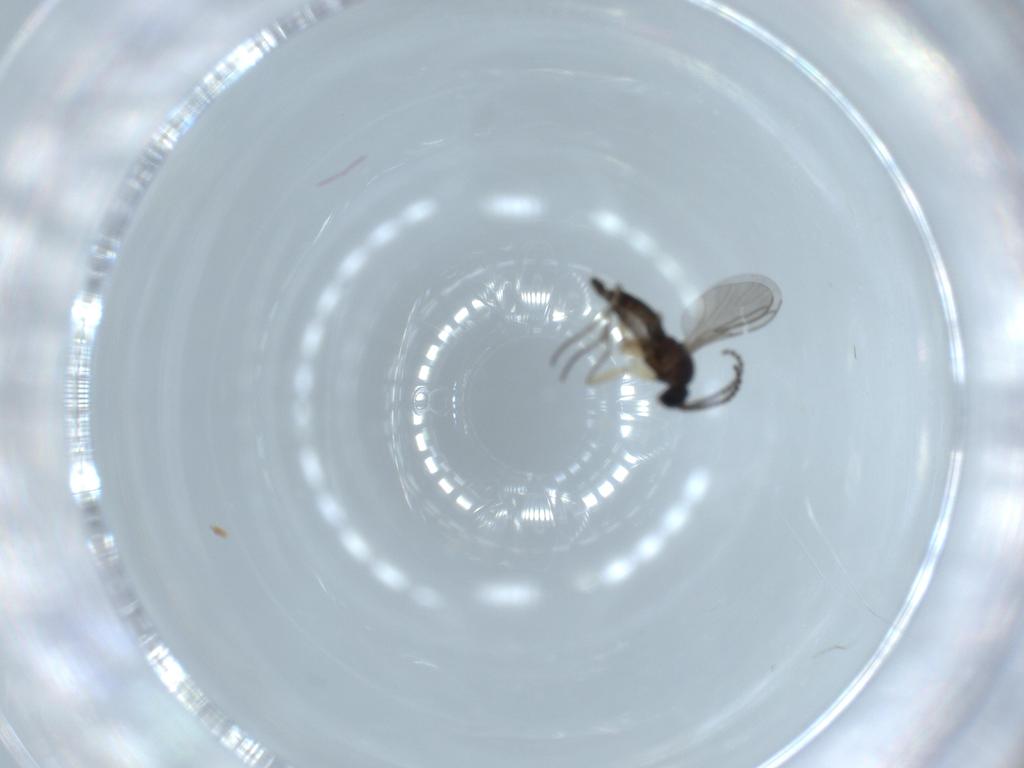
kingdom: Animalia
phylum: Arthropoda
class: Insecta
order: Diptera
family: Sciaridae
